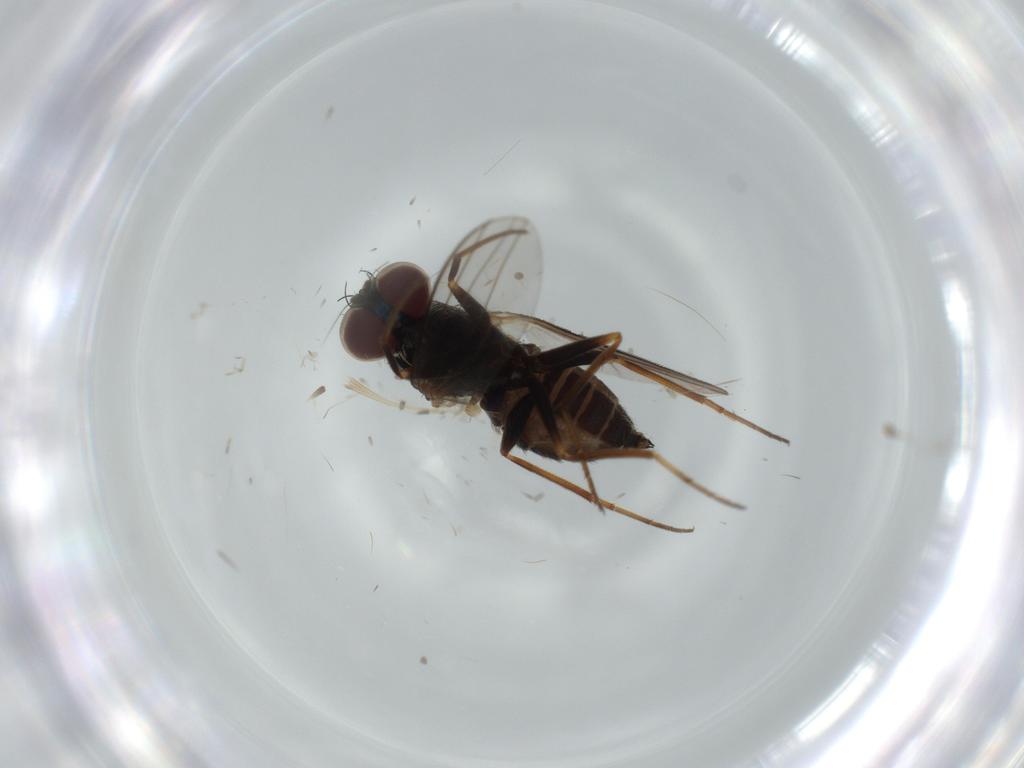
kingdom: Animalia
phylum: Arthropoda
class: Insecta
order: Diptera
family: Dolichopodidae
